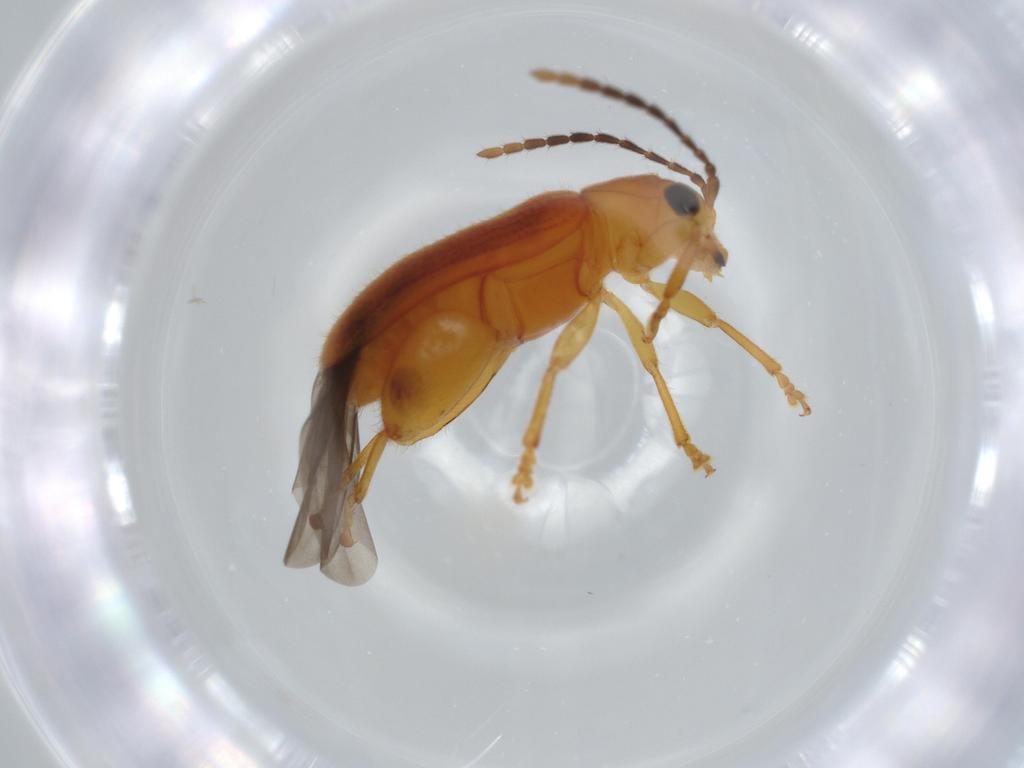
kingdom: Animalia
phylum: Arthropoda
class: Insecta
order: Coleoptera
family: Chrysomelidae
